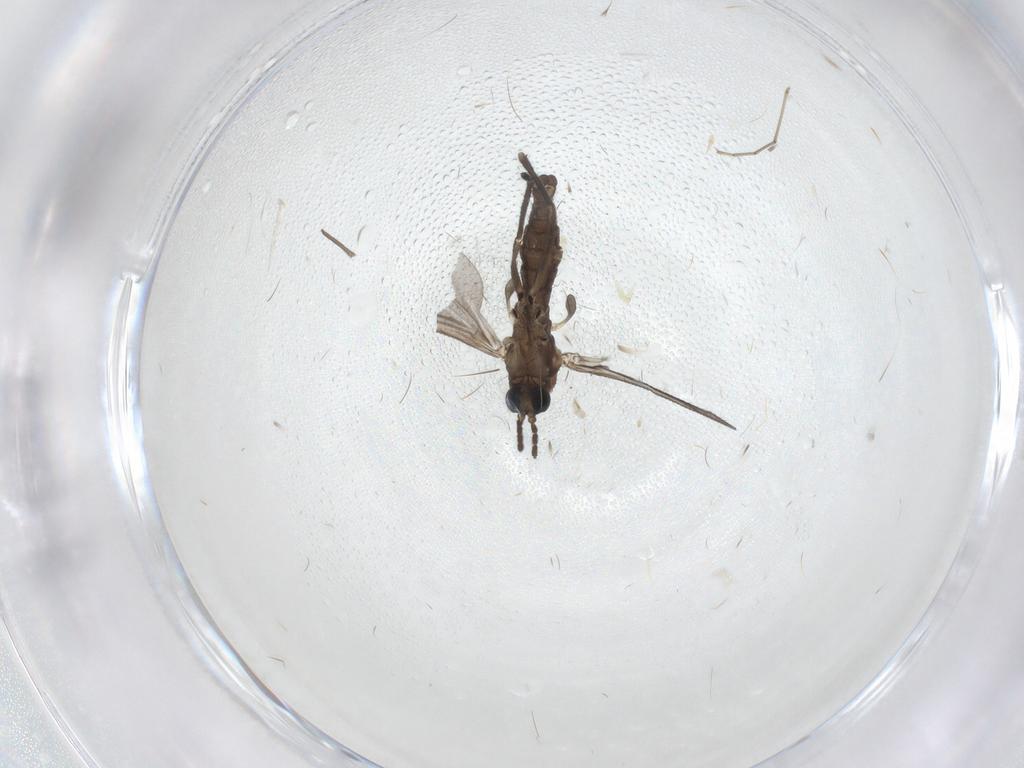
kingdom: Animalia
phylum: Arthropoda
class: Insecta
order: Diptera
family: Sciaridae
